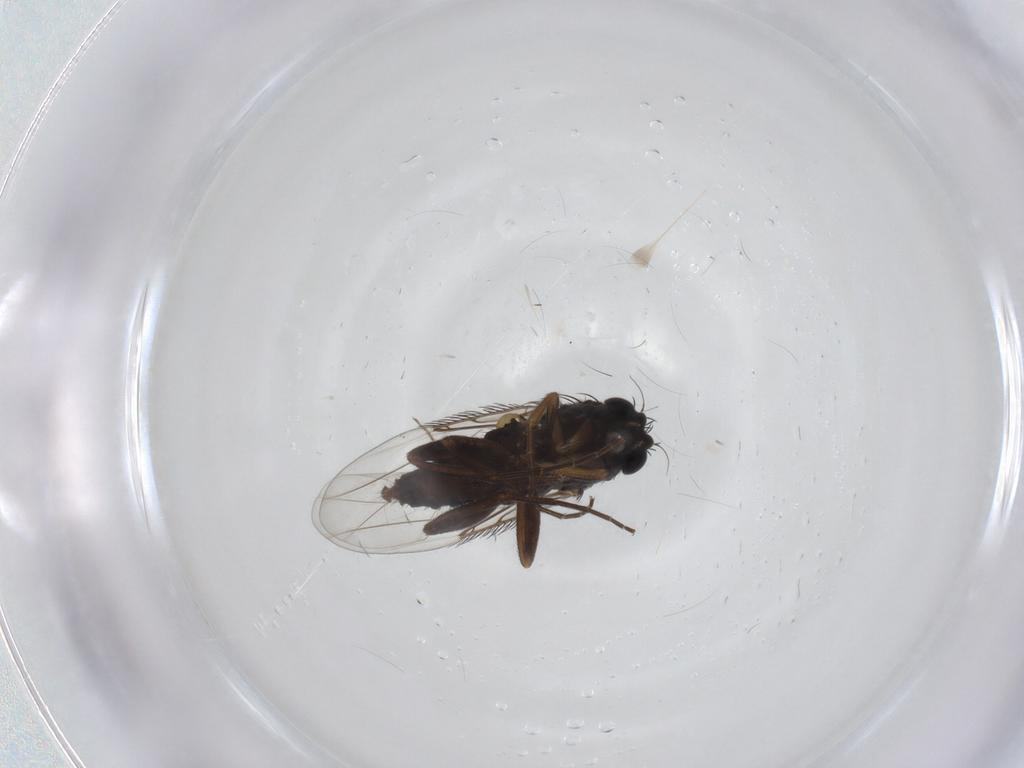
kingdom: Animalia
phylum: Arthropoda
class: Insecta
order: Diptera
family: Phoridae
